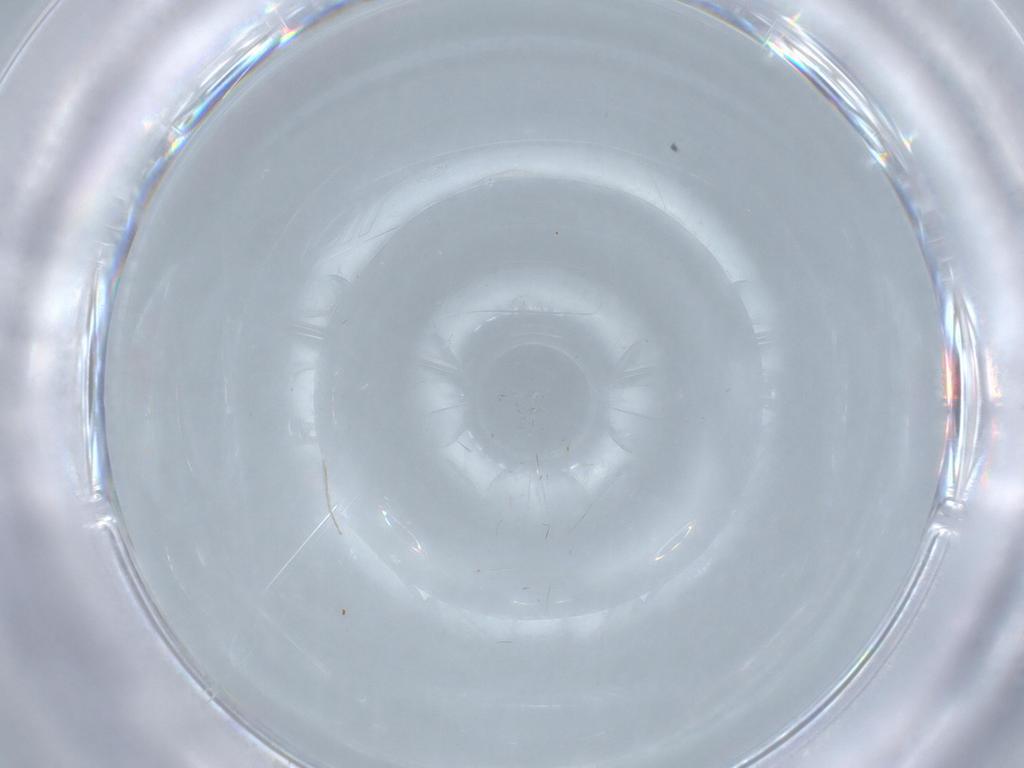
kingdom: Animalia
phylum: Arthropoda
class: Insecta
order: Diptera
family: Chironomidae
